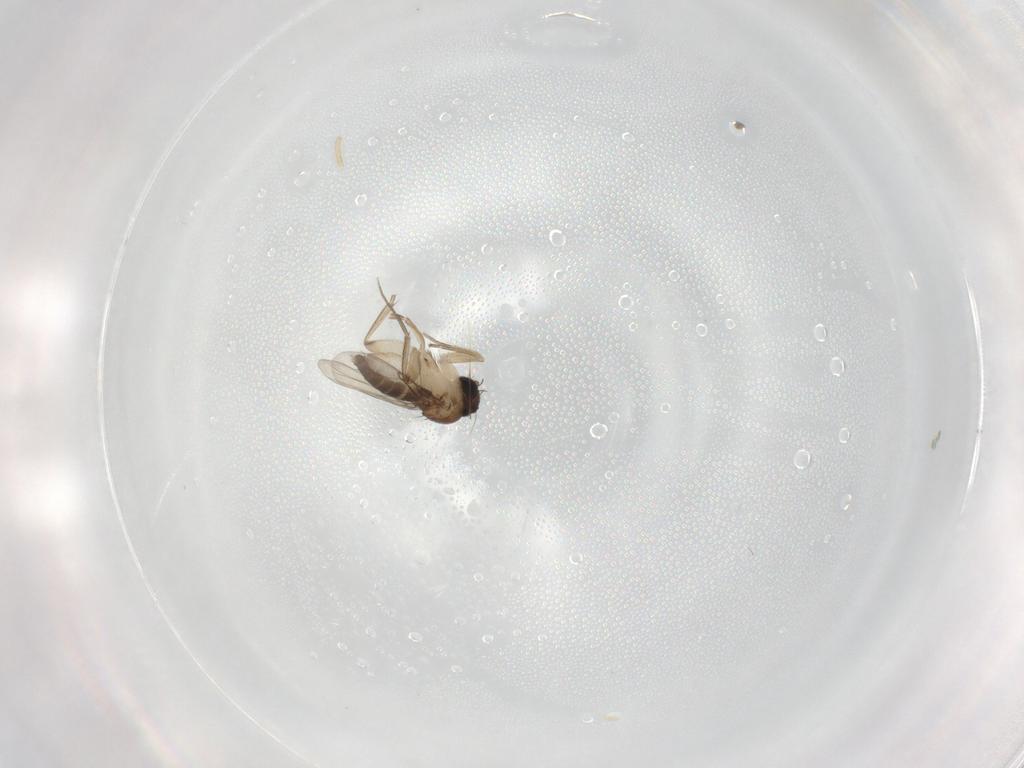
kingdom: Animalia
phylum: Arthropoda
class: Insecta
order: Diptera
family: Phoridae
